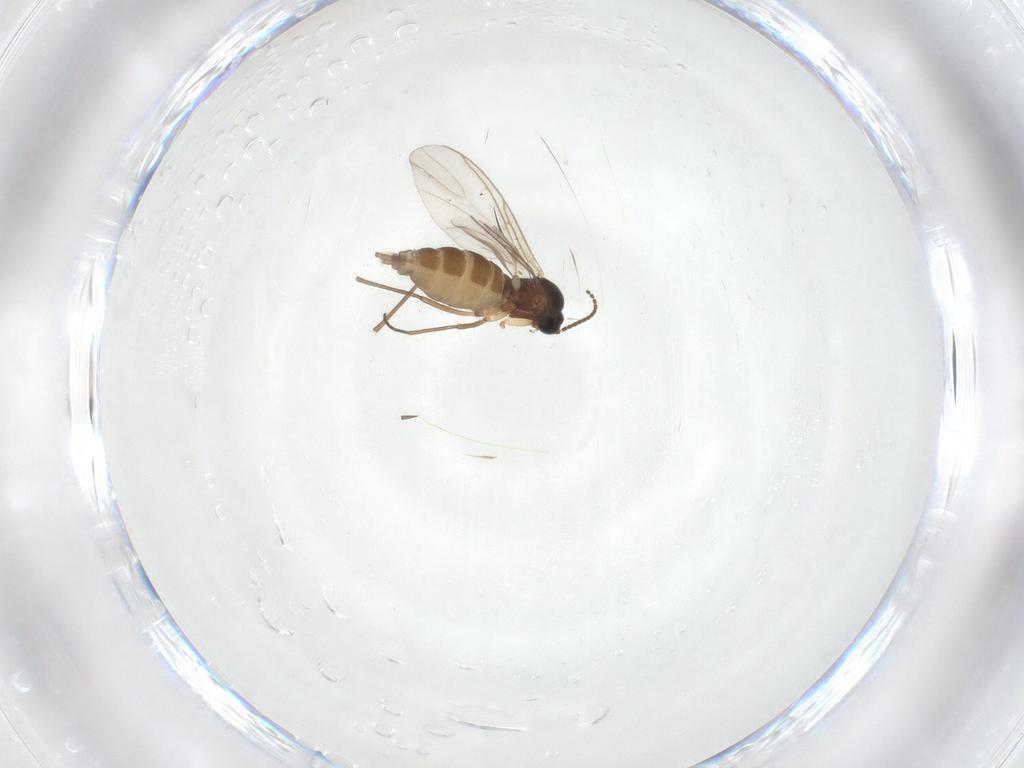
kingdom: Animalia
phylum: Arthropoda
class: Insecta
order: Diptera
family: Sciaridae
